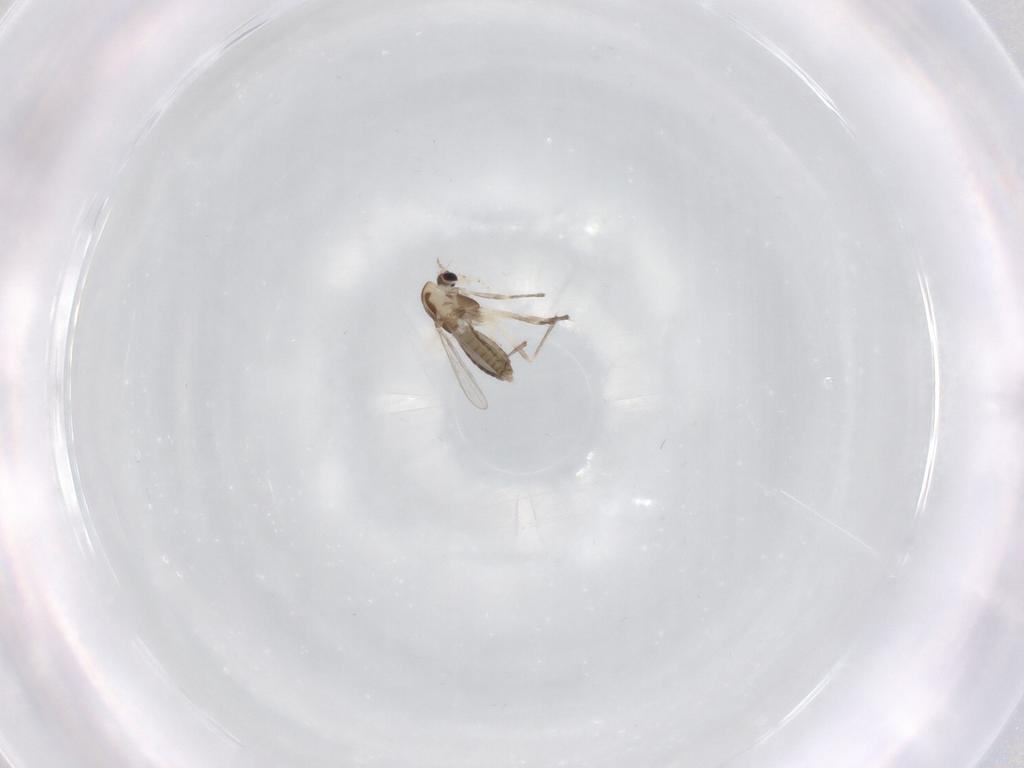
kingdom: Animalia
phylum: Arthropoda
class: Insecta
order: Diptera
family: Chironomidae
